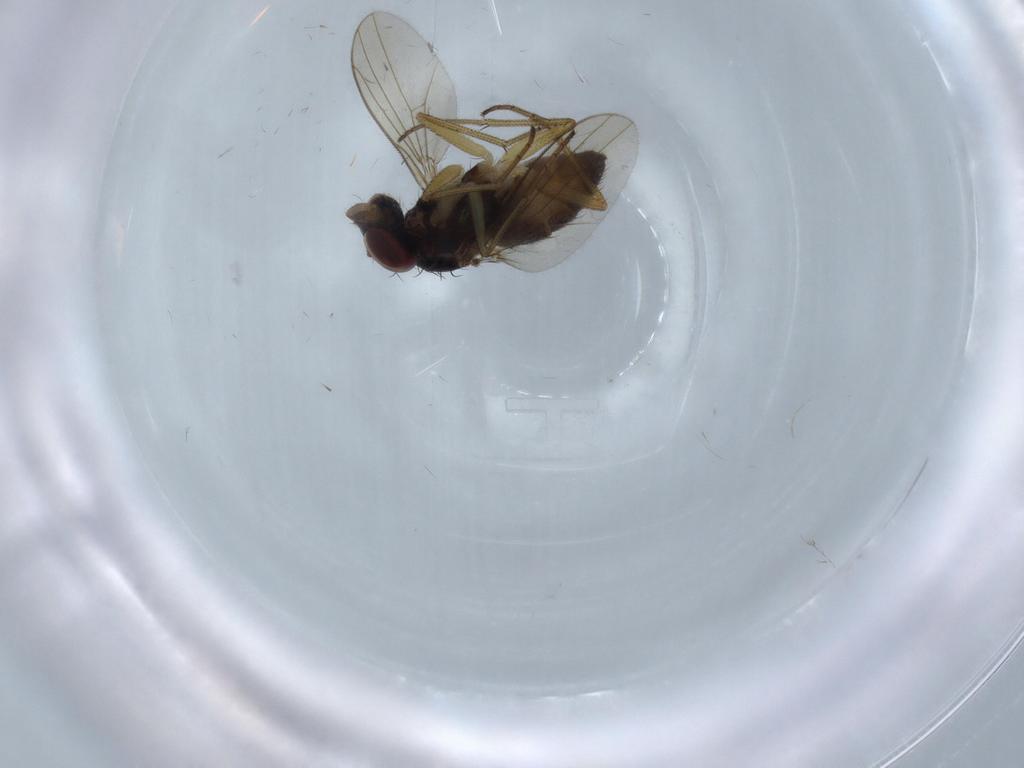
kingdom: Animalia
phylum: Arthropoda
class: Insecta
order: Diptera
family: Dolichopodidae
